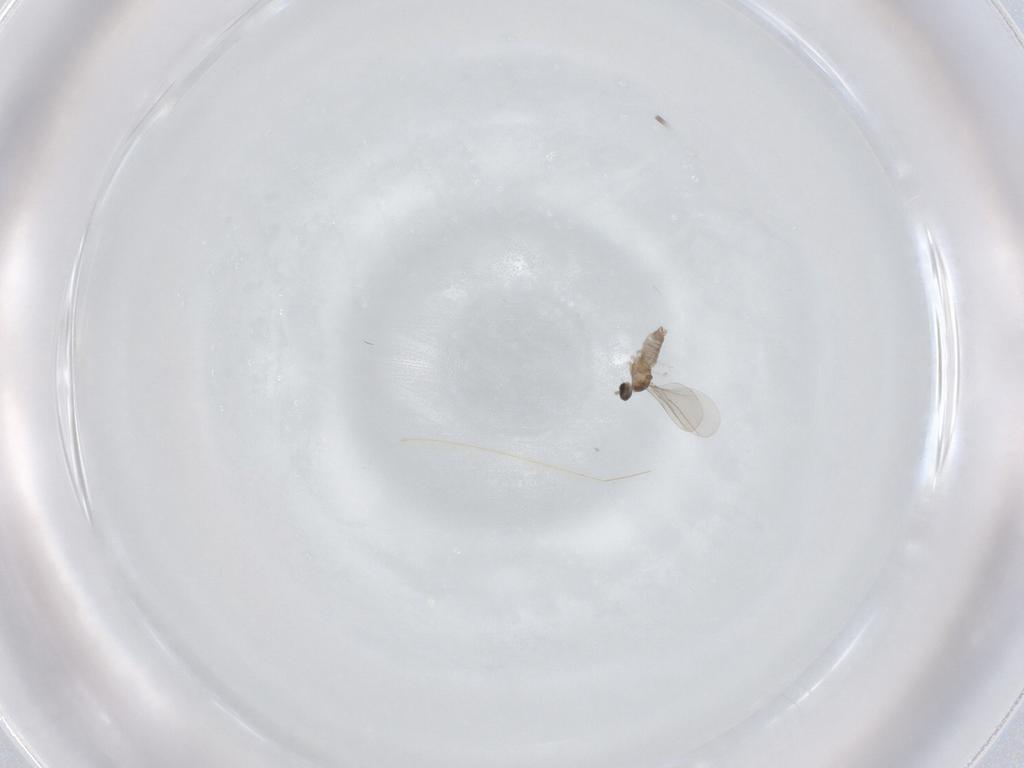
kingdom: Animalia
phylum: Arthropoda
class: Insecta
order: Diptera
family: Cecidomyiidae
